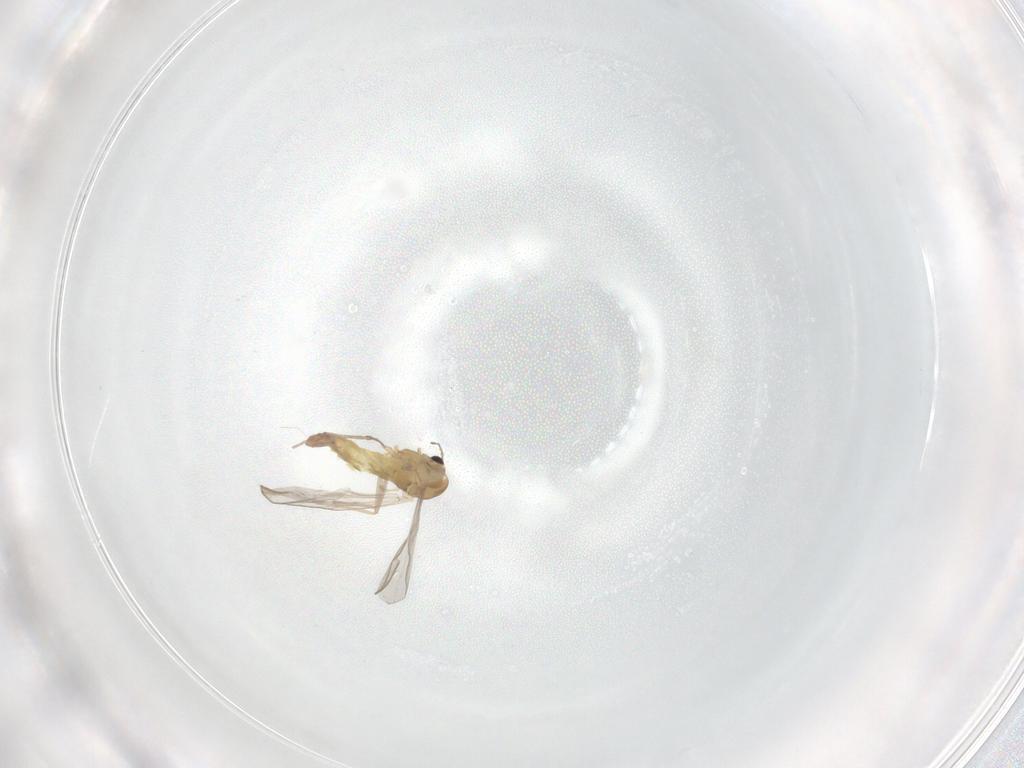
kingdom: Animalia
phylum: Arthropoda
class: Insecta
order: Diptera
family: Chironomidae
